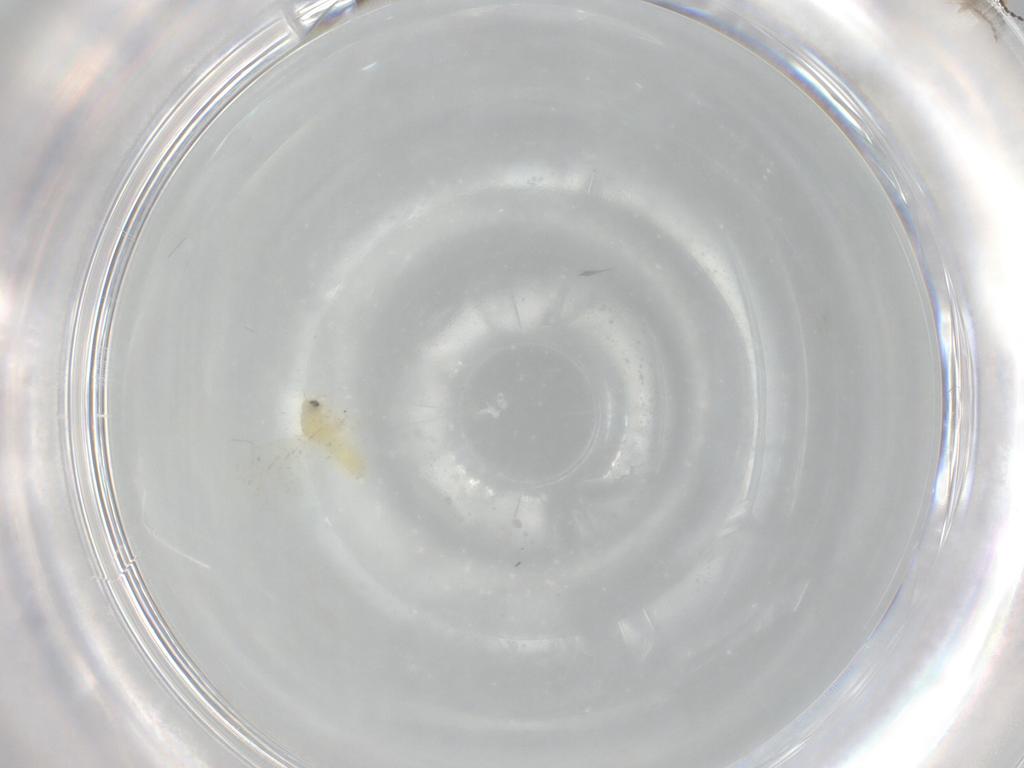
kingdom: Animalia
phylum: Arthropoda
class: Insecta
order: Hemiptera
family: Aleyrodidae
